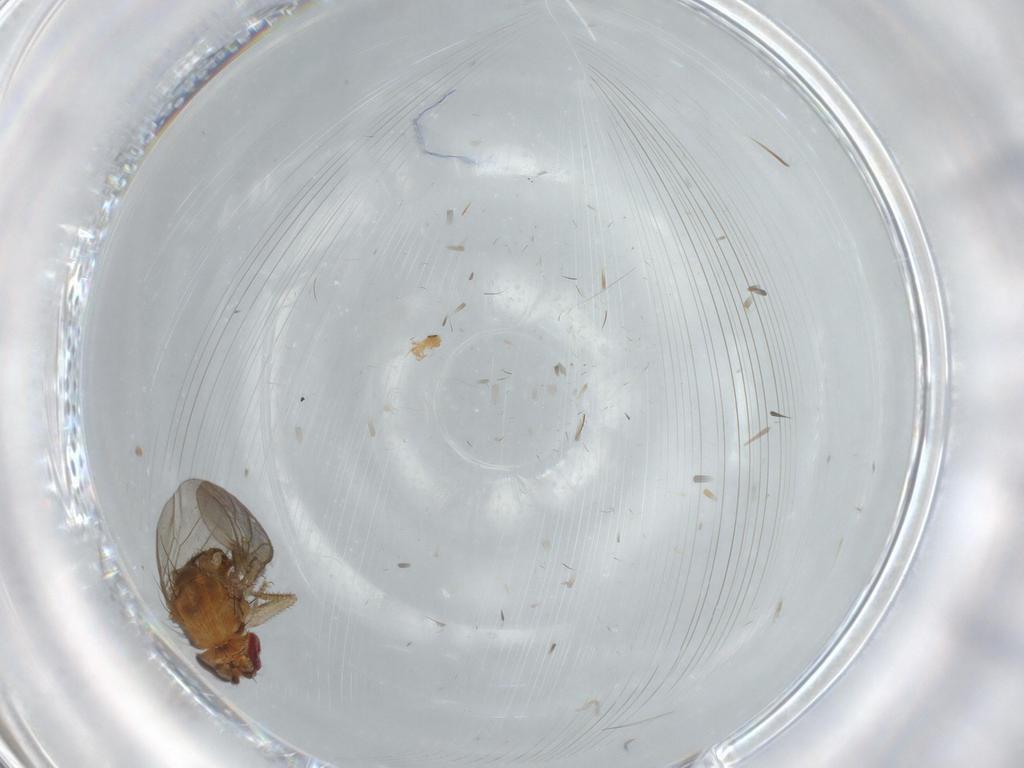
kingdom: Animalia
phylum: Arthropoda
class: Insecta
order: Diptera
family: Drosophilidae
